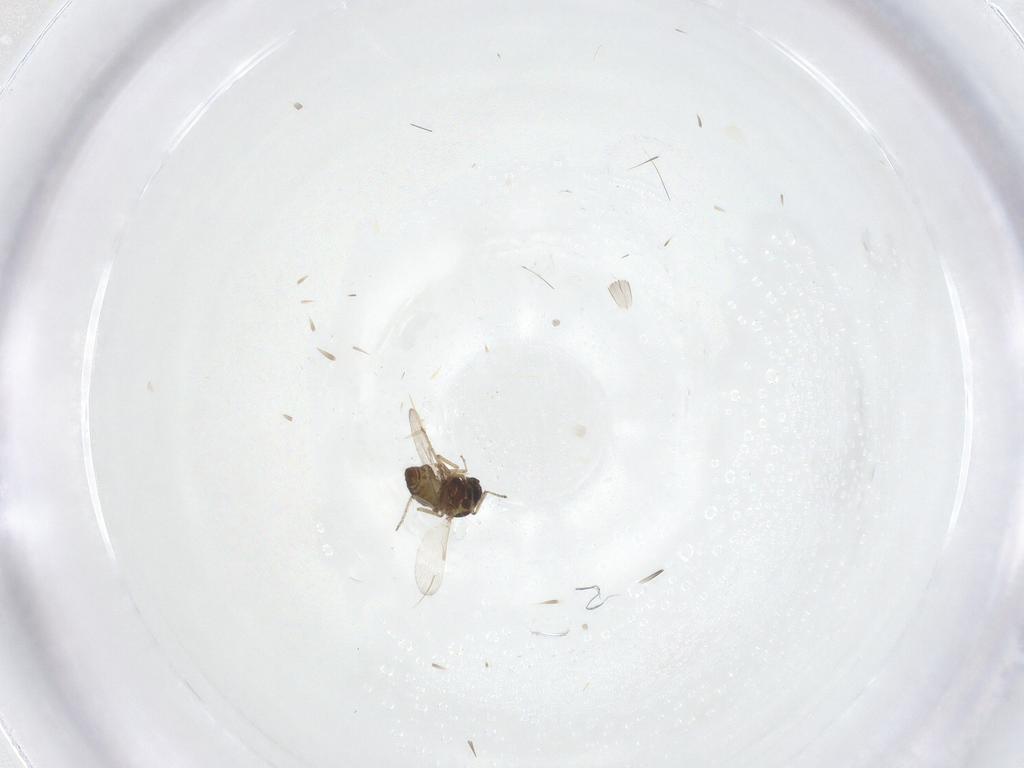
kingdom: Animalia
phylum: Arthropoda
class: Insecta
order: Diptera
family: Ceratopogonidae
